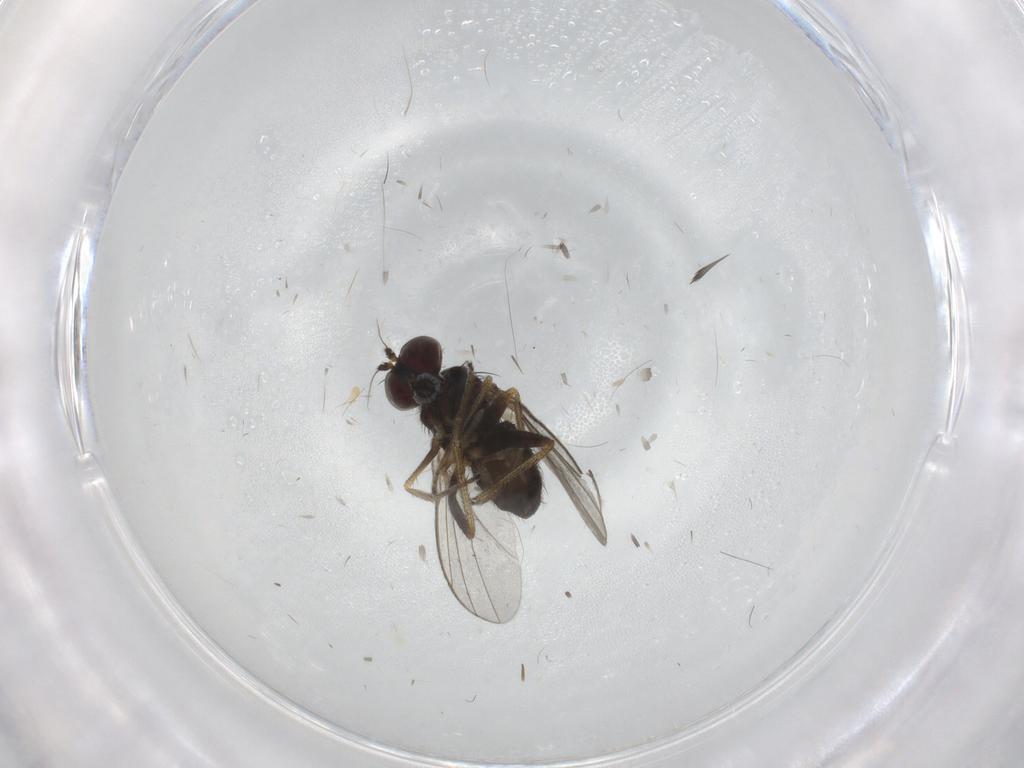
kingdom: Animalia
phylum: Arthropoda
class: Insecta
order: Diptera
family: Chironomidae
